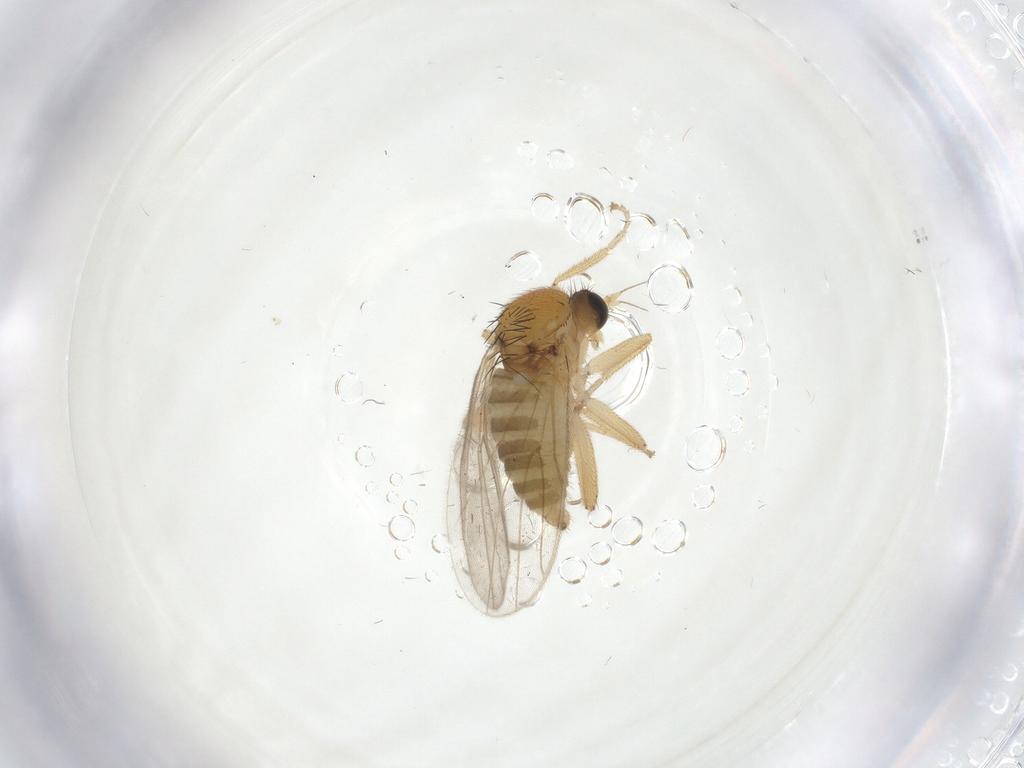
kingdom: Animalia
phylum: Arthropoda
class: Insecta
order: Diptera
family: Hybotidae
